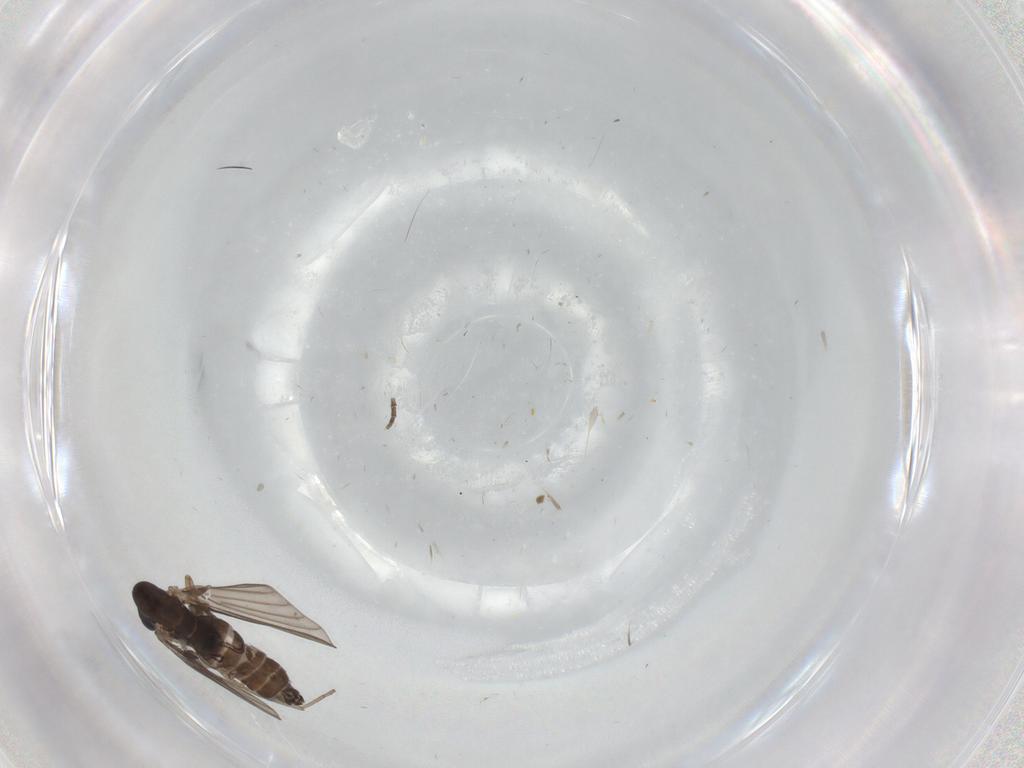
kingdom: Animalia
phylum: Arthropoda
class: Insecta
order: Diptera
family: Phoridae
